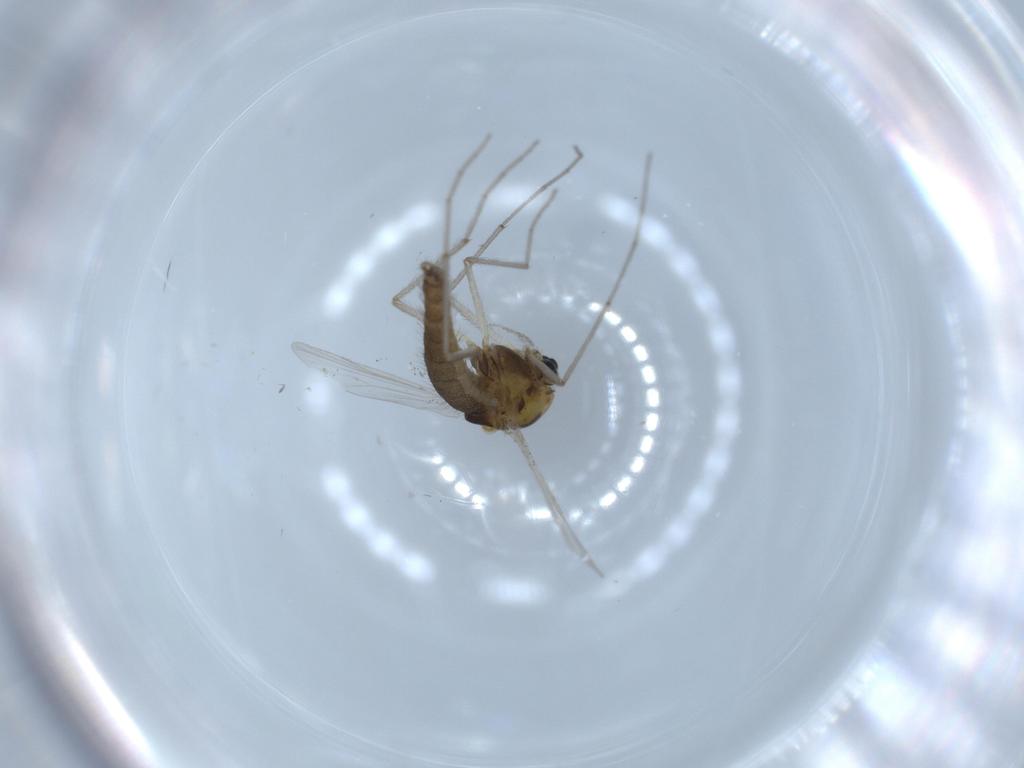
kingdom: Animalia
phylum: Arthropoda
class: Insecta
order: Diptera
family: Chironomidae
